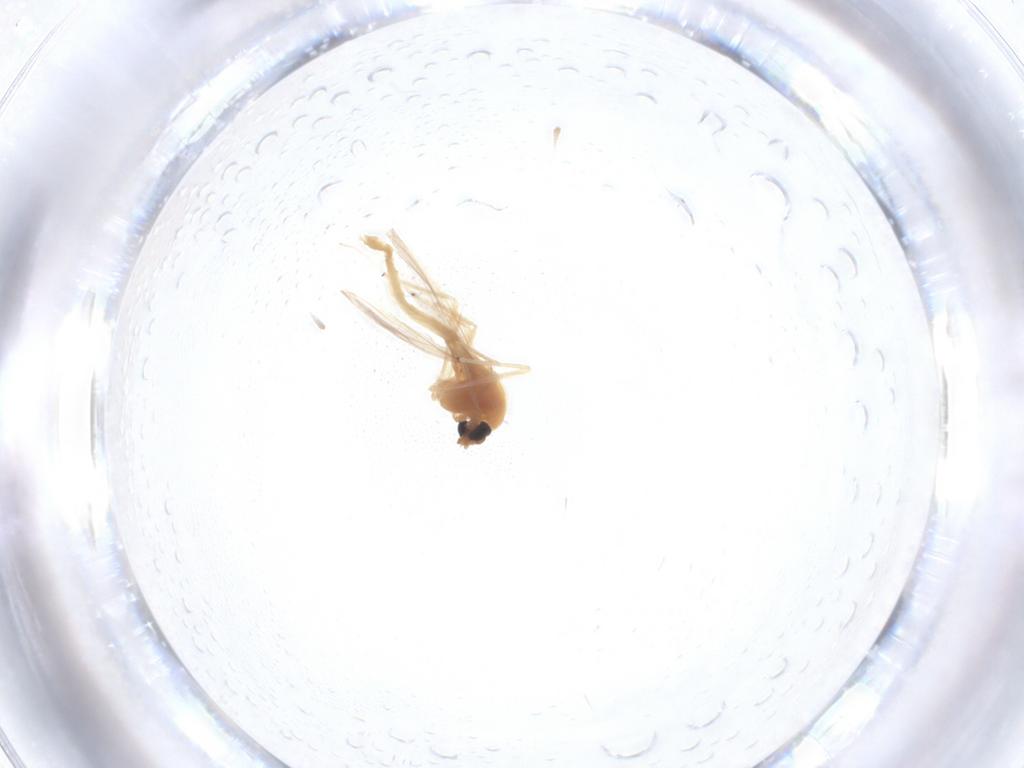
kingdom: Animalia
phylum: Arthropoda
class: Insecta
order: Diptera
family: Chironomidae
